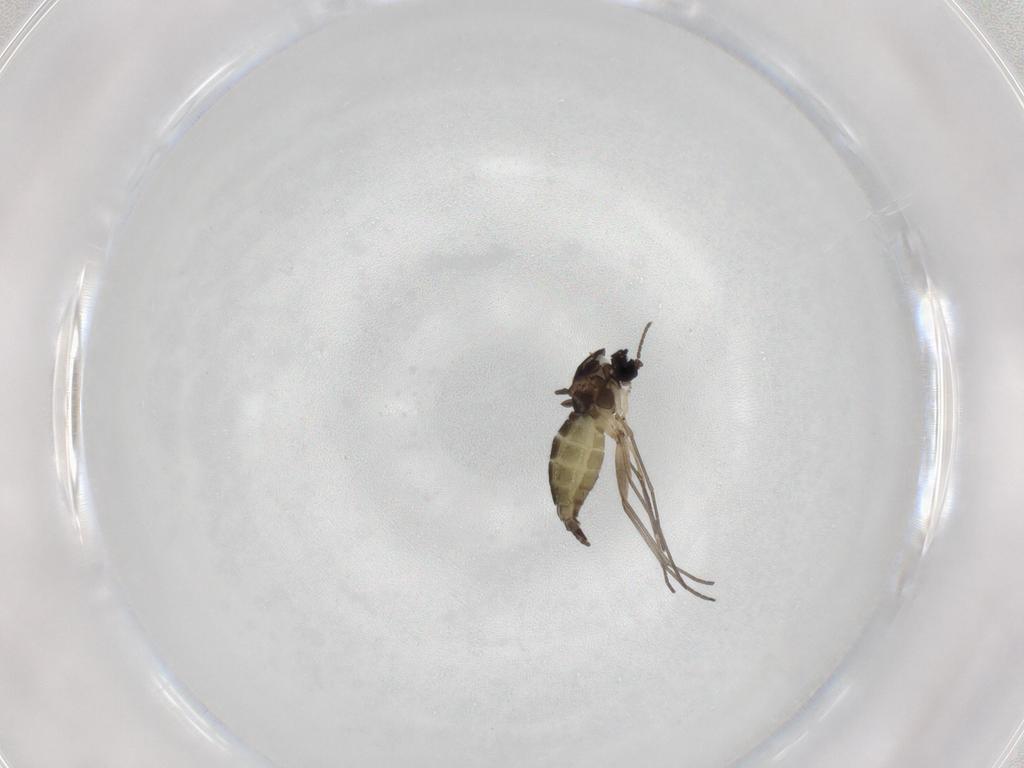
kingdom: Animalia
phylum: Arthropoda
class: Insecta
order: Diptera
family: Sciaridae
